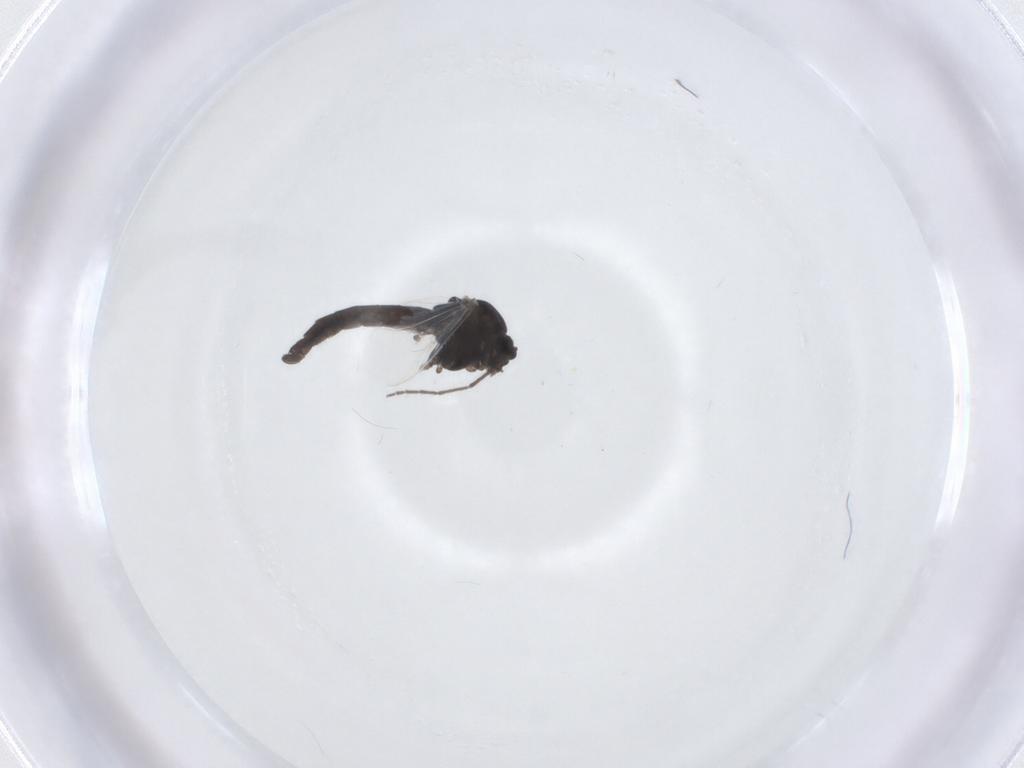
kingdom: Animalia
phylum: Arthropoda
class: Insecta
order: Diptera
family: Chironomidae
